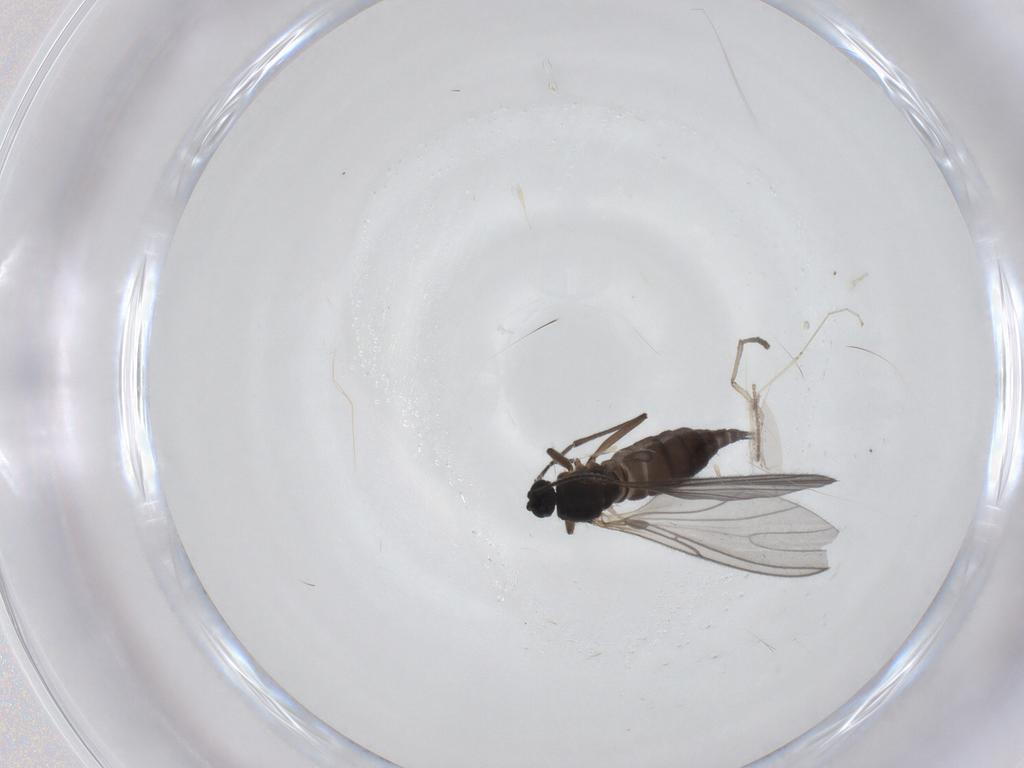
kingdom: Animalia
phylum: Arthropoda
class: Insecta
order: Diptera
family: Sciaridae
